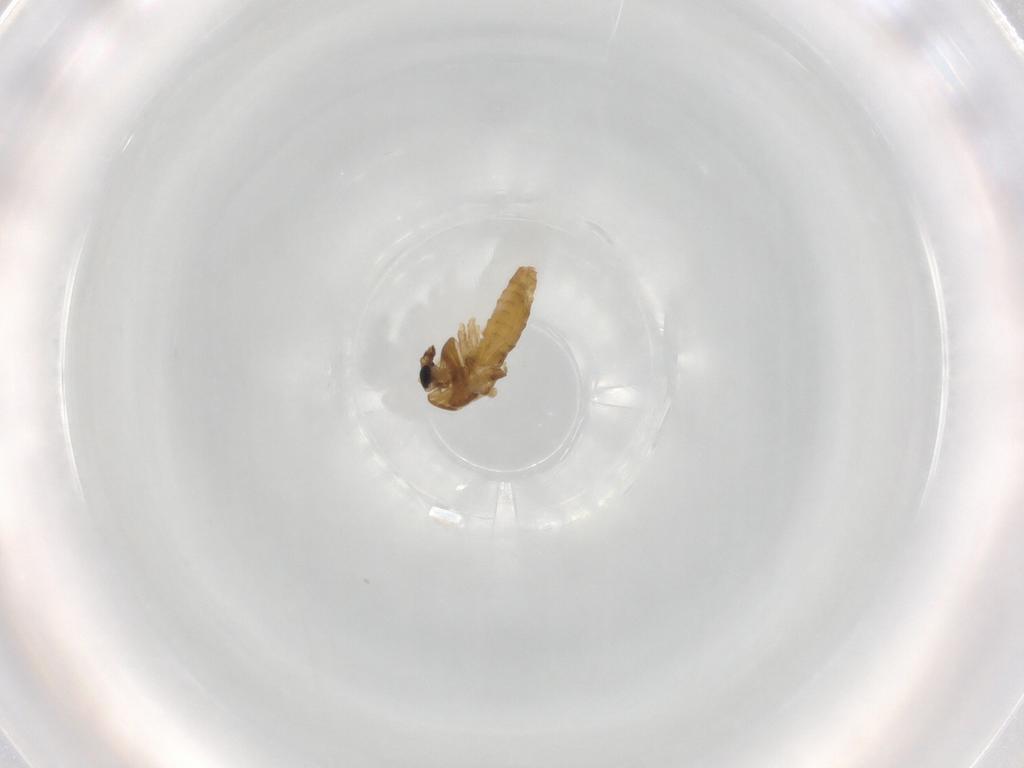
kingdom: Animalia
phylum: Arthropoda
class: Insecta
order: Diptera
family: Chironomidae
